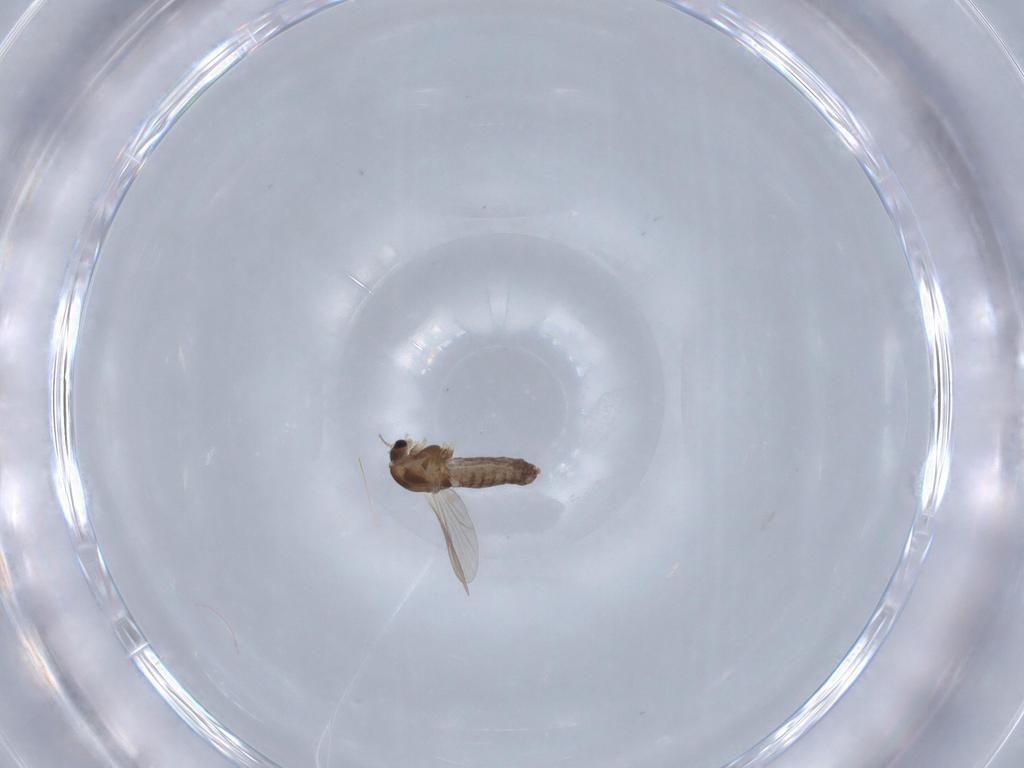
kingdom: Animalia
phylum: Arthropoda
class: Insecta
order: Diptera
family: Chironomidae
